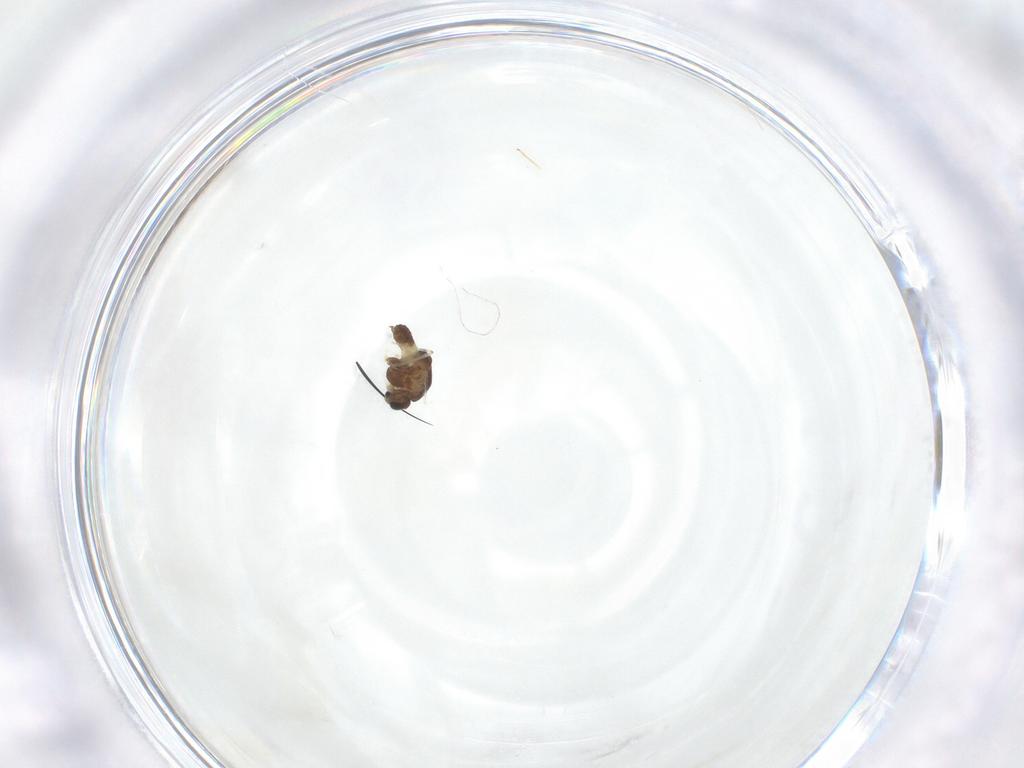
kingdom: Animalia
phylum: Arthropoda
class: Insecta
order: Diptera
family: Chironomidae
